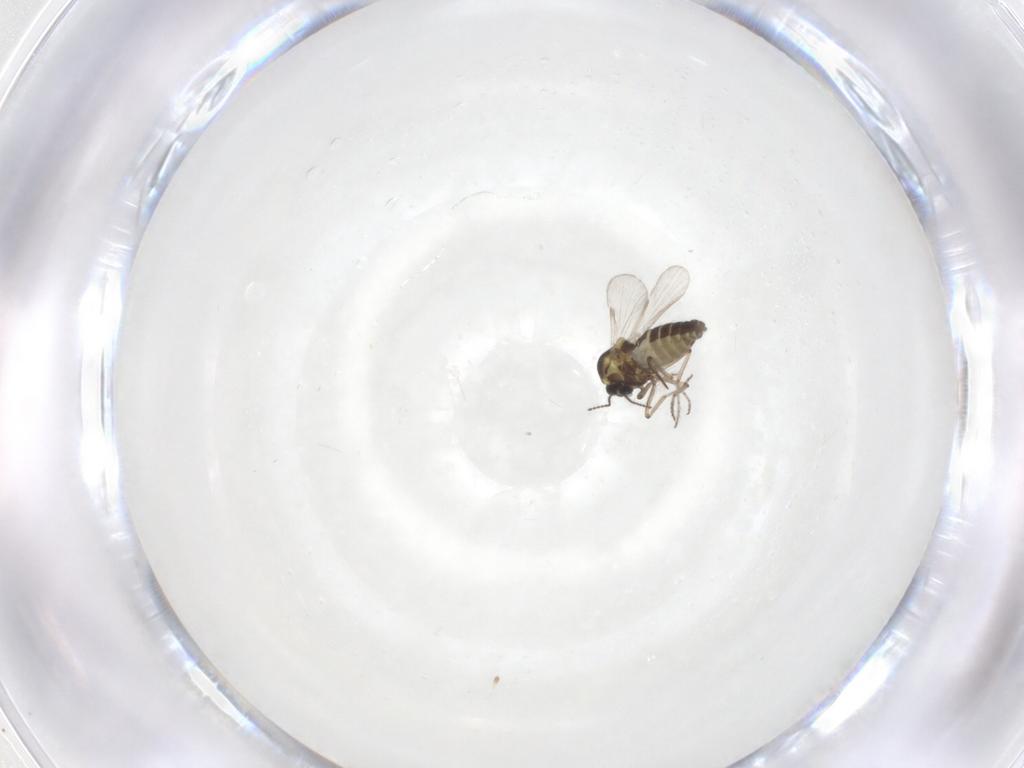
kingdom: Animalia
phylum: Arthropoda
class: Insecta
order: Diptera
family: Ceratopogonidae
